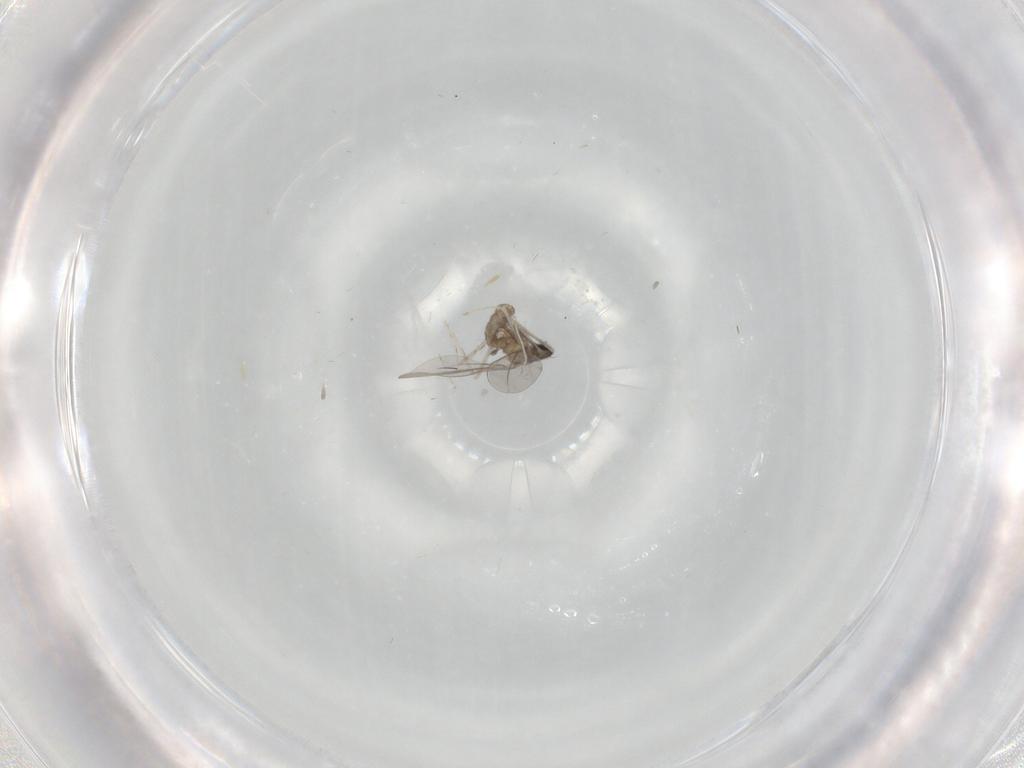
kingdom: Animalia
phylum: Arthropoda
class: Insecta
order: Diptera
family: Cecidomyiidae
